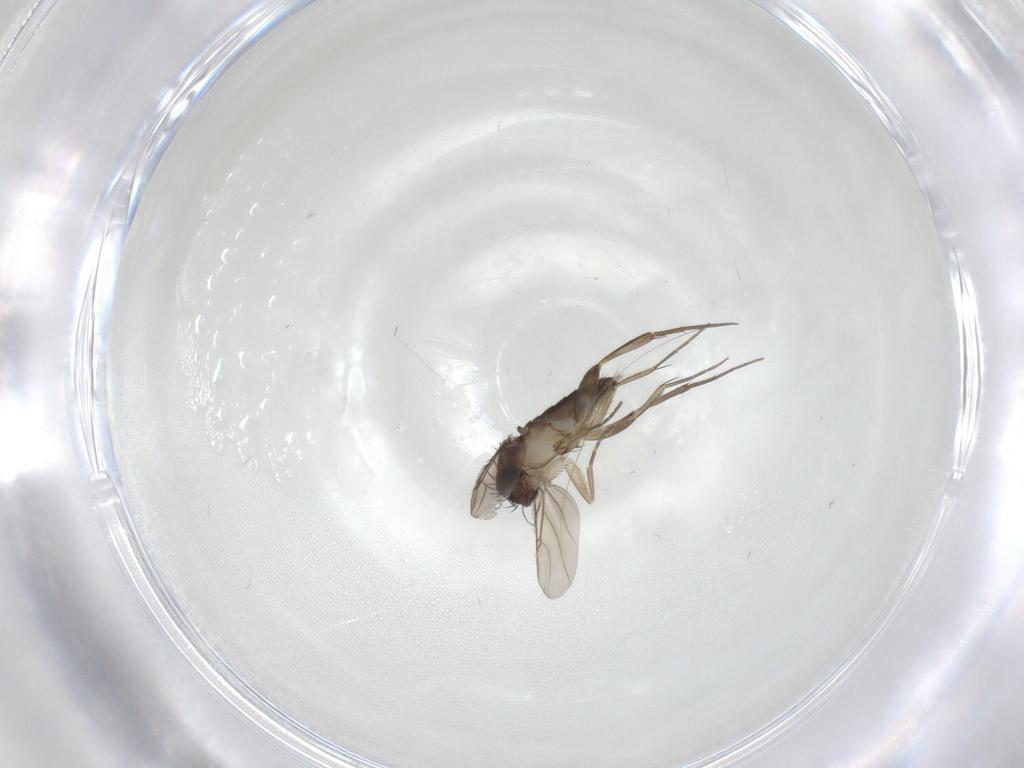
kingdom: Animalia
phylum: Arthropoda
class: Insecta
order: Diptera
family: Phoridae
